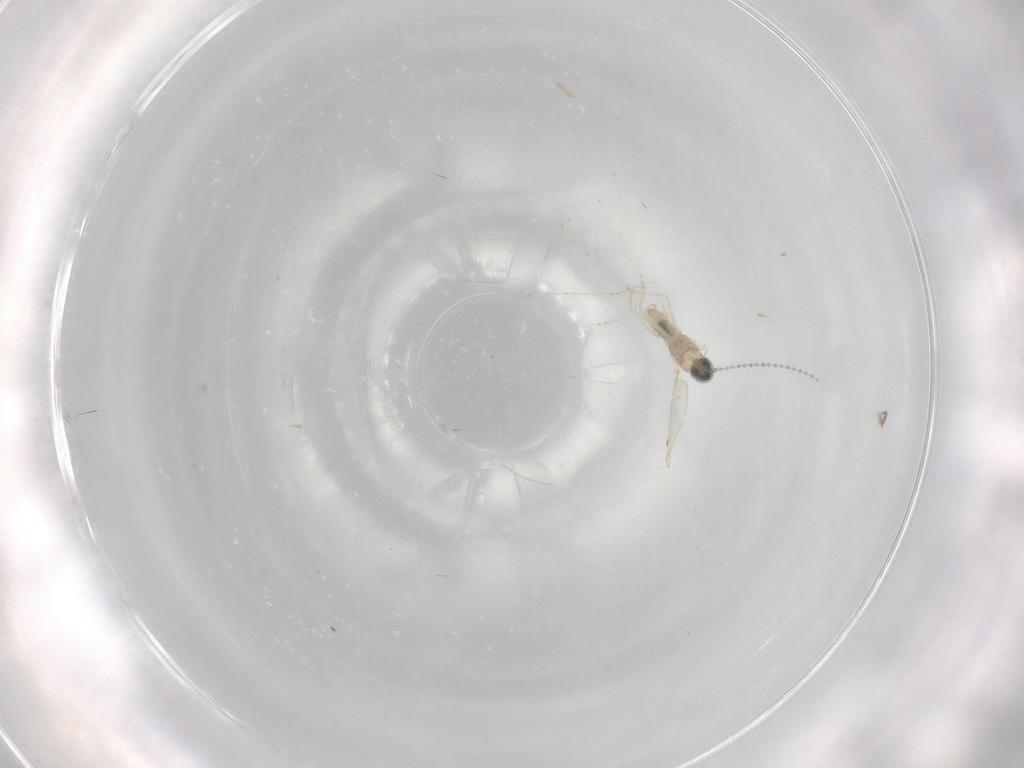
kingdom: Animalia
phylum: Arthropoda
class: Insecta
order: Diptera
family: Cecidomyiidae
